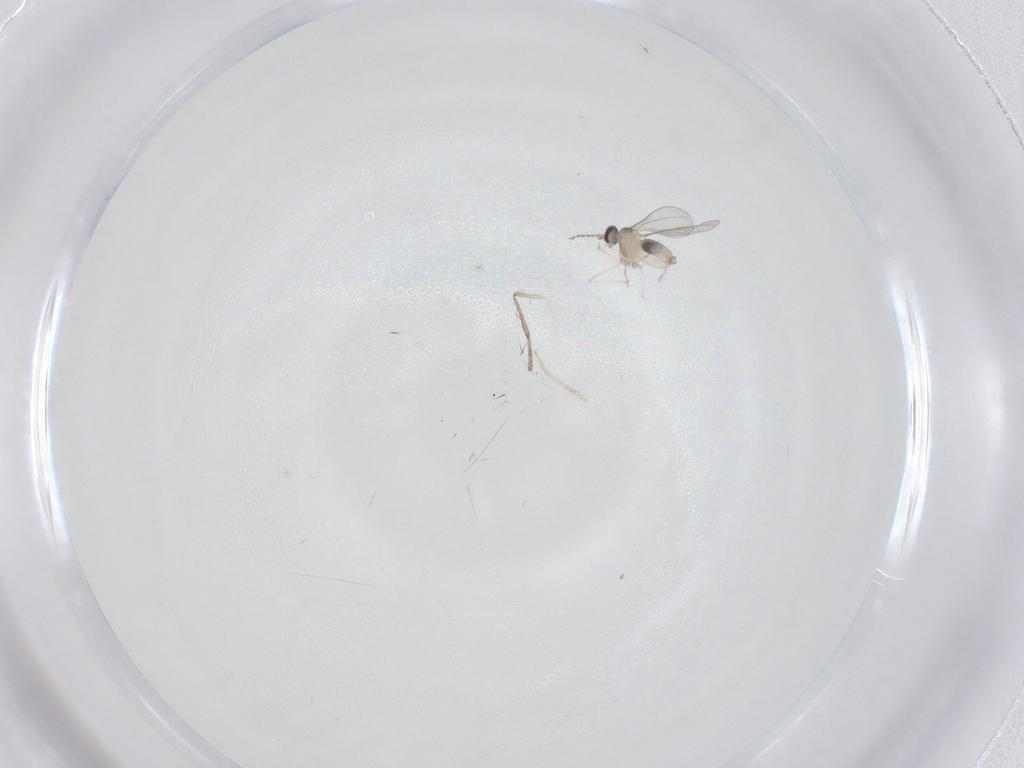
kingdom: Animalia
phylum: Arthropoda
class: Insecta
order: Diptera
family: Cecidomyiidae
